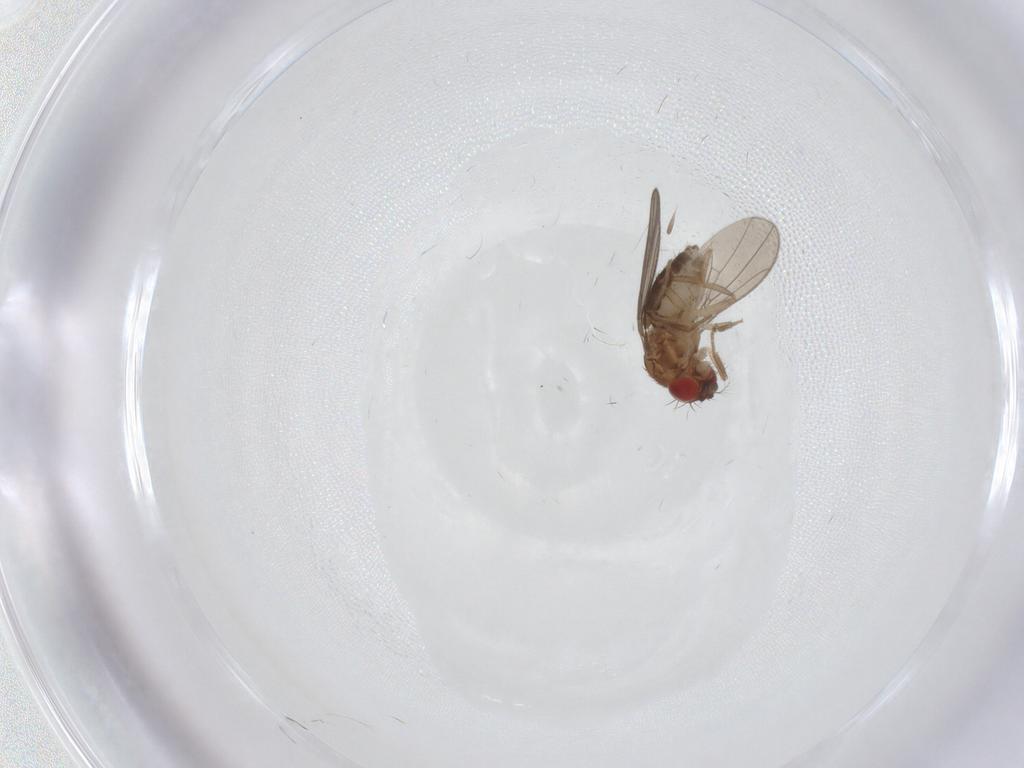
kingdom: Animalia
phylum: Arthropoda
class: Insecta
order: Diptera
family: Drosophilidae
